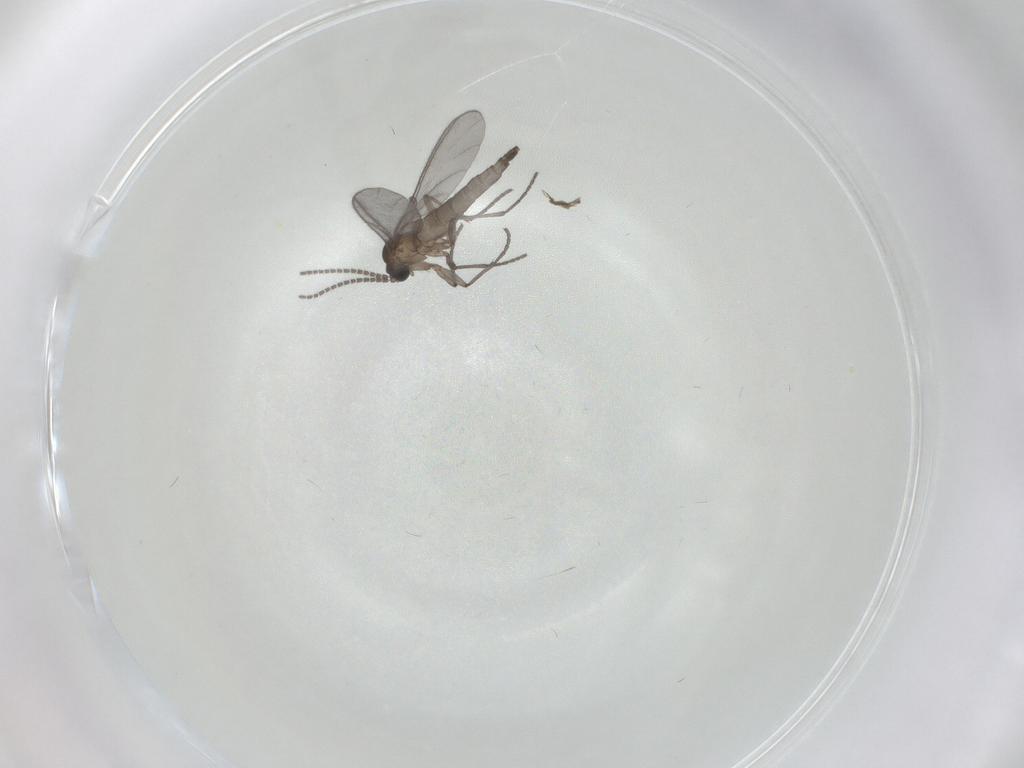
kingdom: Animalia
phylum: Arthropoda
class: Insecta
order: Diptera
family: Sciaridae
